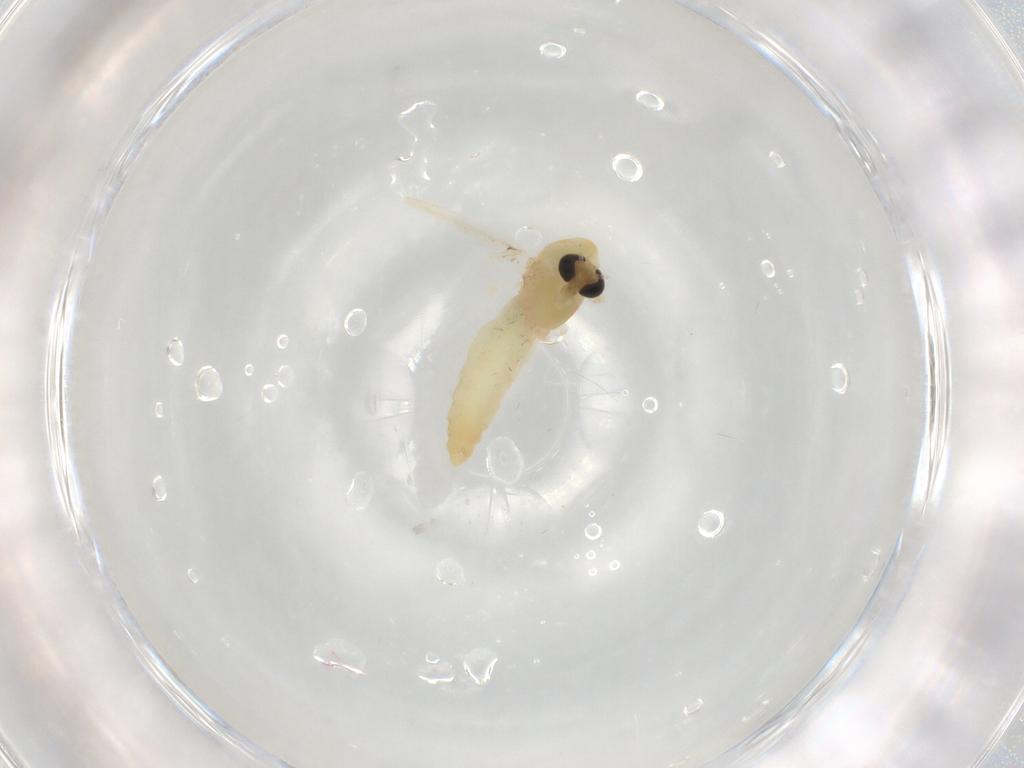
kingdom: Animalia
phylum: Arthropoda
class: Insecta
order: Diptera
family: Chironomidae
